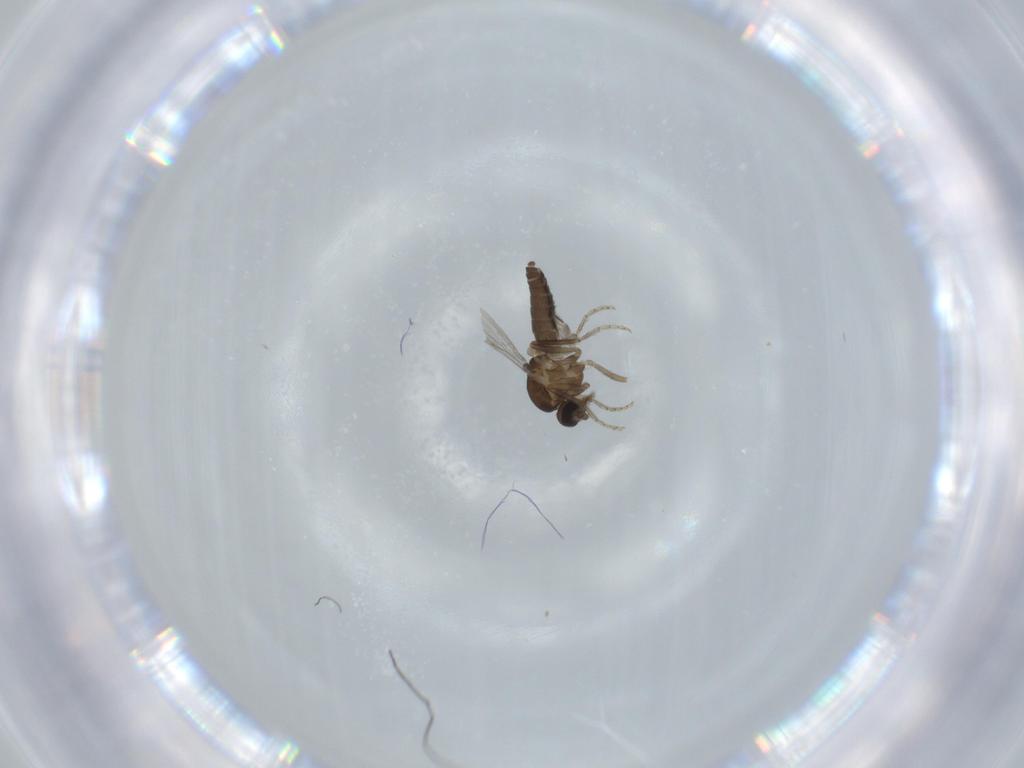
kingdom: Animalia
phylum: Arthropoda
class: Insecta
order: Diptera
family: Ceratopogonidae
